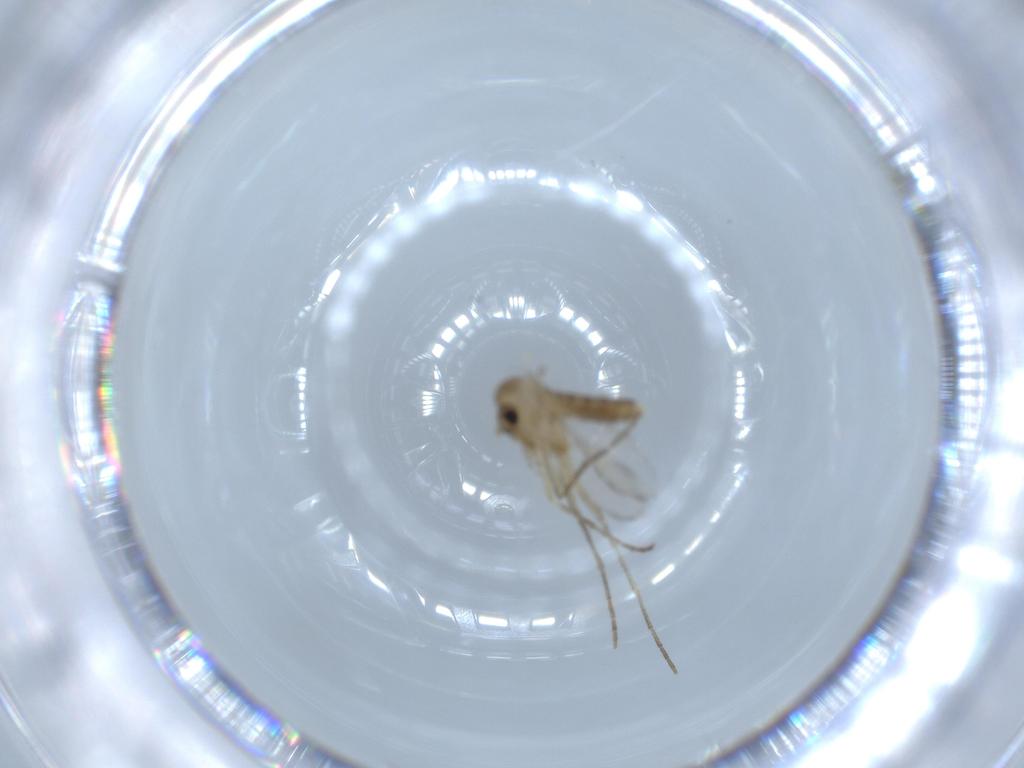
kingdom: Animalia
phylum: Arthropoda
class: Insecta
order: Diptera
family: Psychodidae
